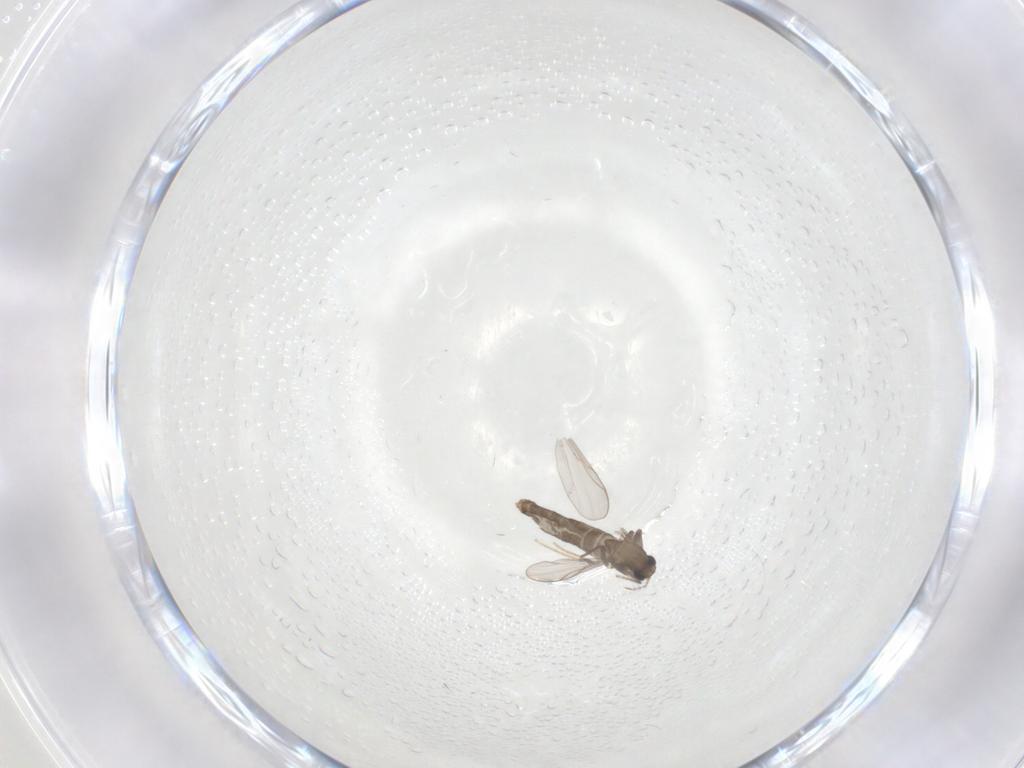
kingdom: Animalia
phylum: Arthropoda
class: Insecta
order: Diptera
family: Chironomidae
